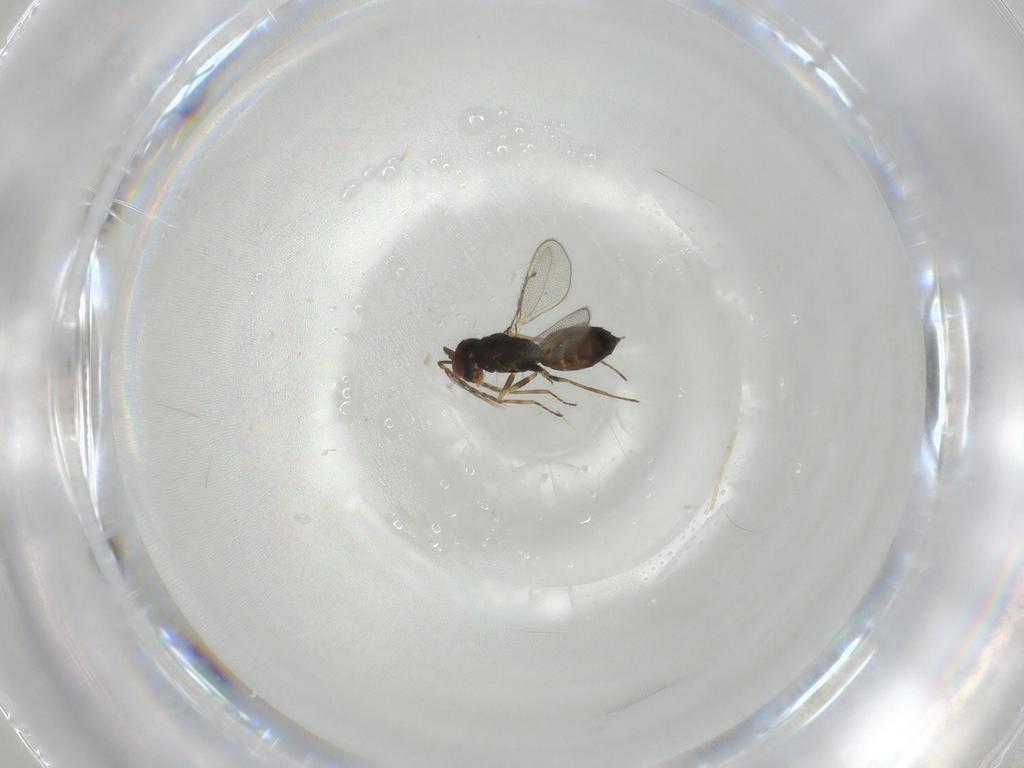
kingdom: Animalia
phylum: Arthropoda
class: Insecta
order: Hymenoptera
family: Eulophidae
